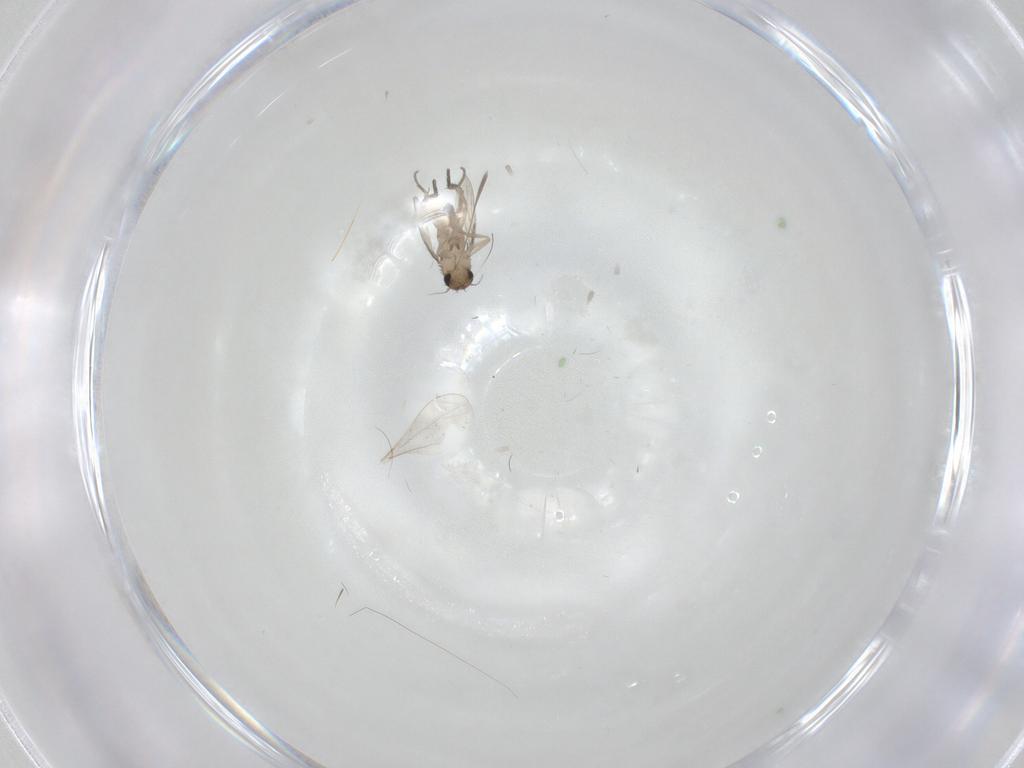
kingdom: Animalia
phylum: Arthropoda
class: Insecta
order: Diptera
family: Cecidomyiidae
